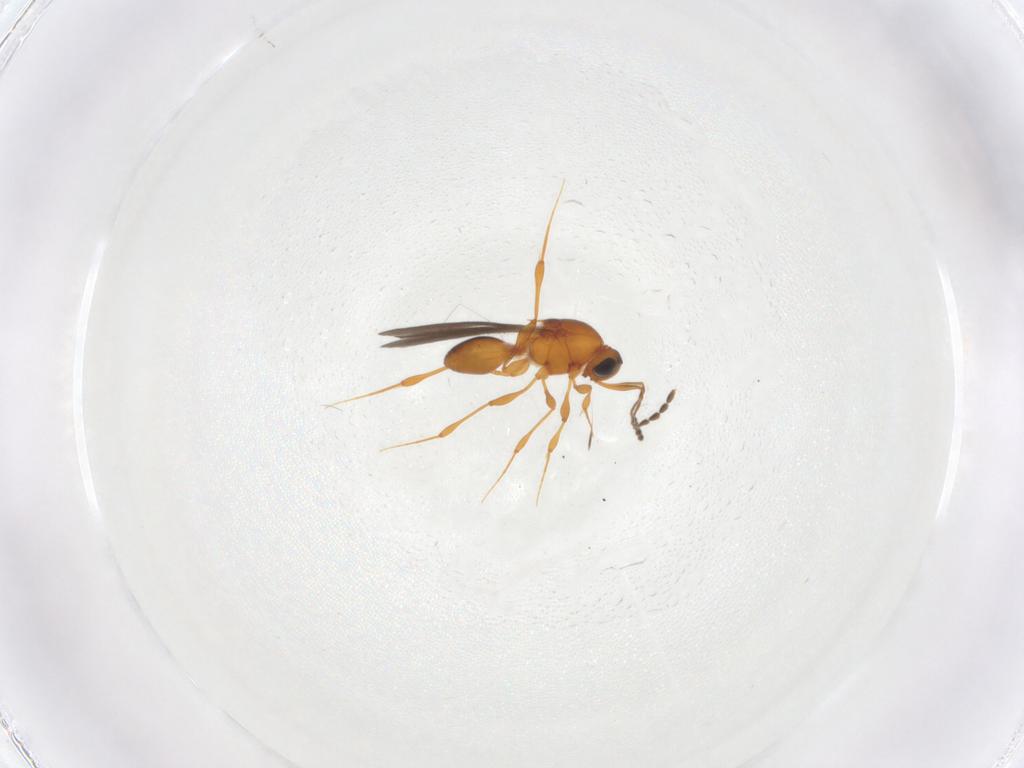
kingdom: Animalia
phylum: Arthropoda
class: Insecta
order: Hymenoptera
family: Platygastridae
